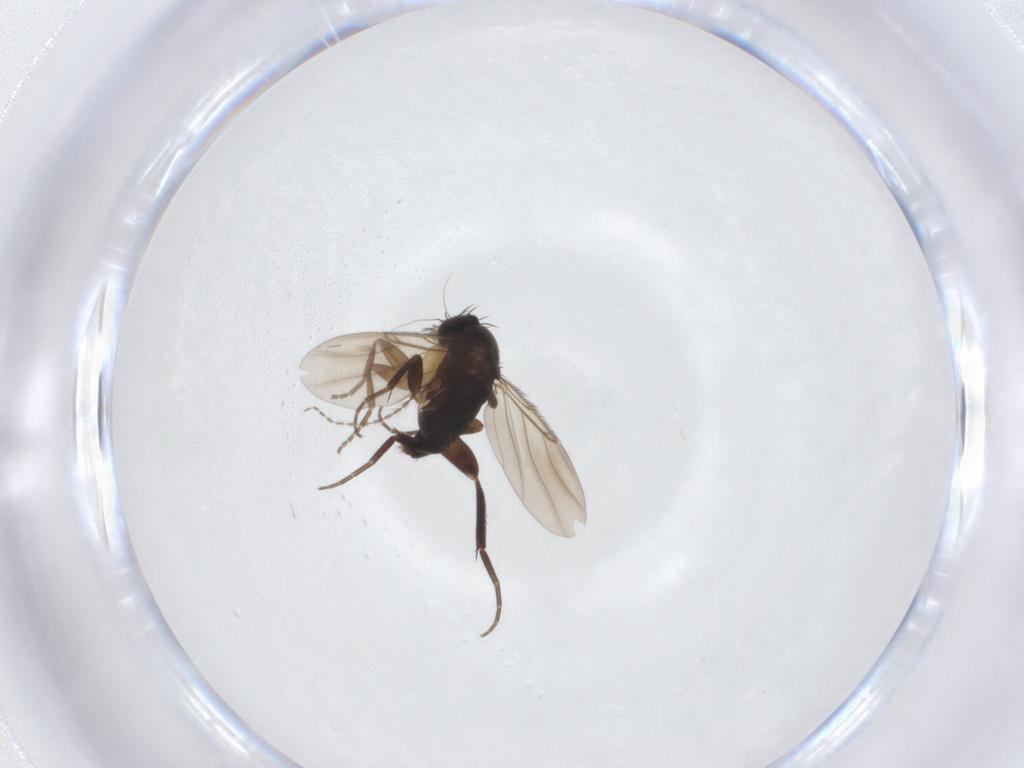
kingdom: Animalia
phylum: Arthropoda
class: Insecta
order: Diptera
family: Cecidomyiidae
